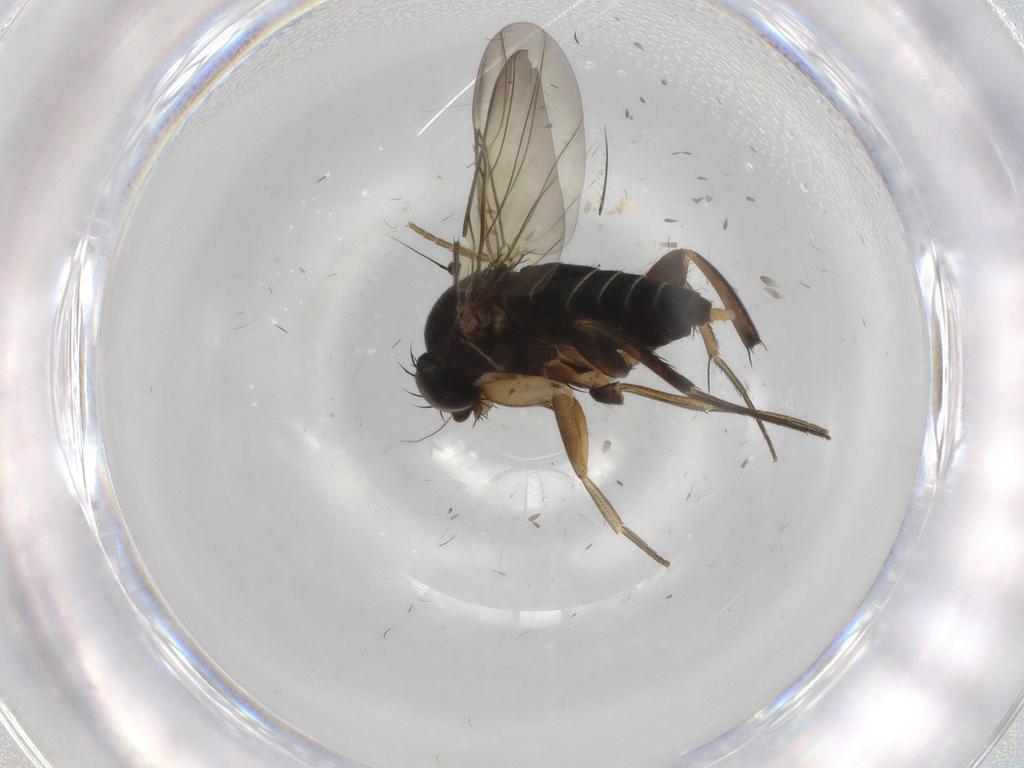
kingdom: Animalia
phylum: Arthropoda
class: Insecta
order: Diptera
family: Phoridae
